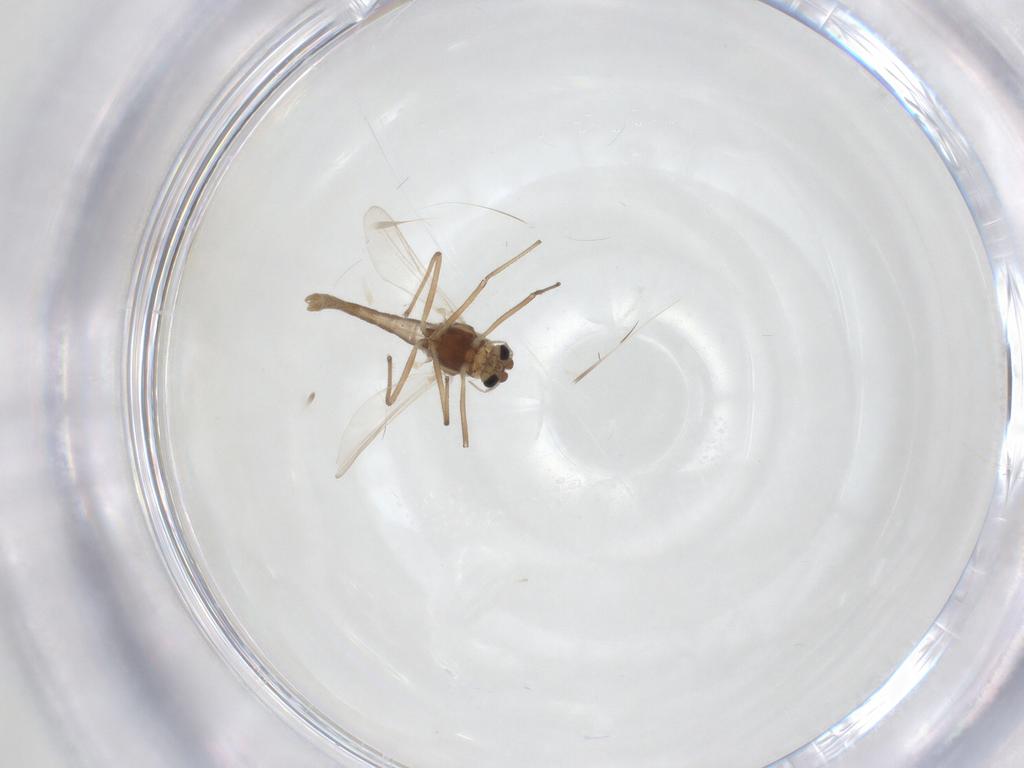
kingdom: Animalia
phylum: Arthropoda
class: Insecta
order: Diptera
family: Chironomidae
